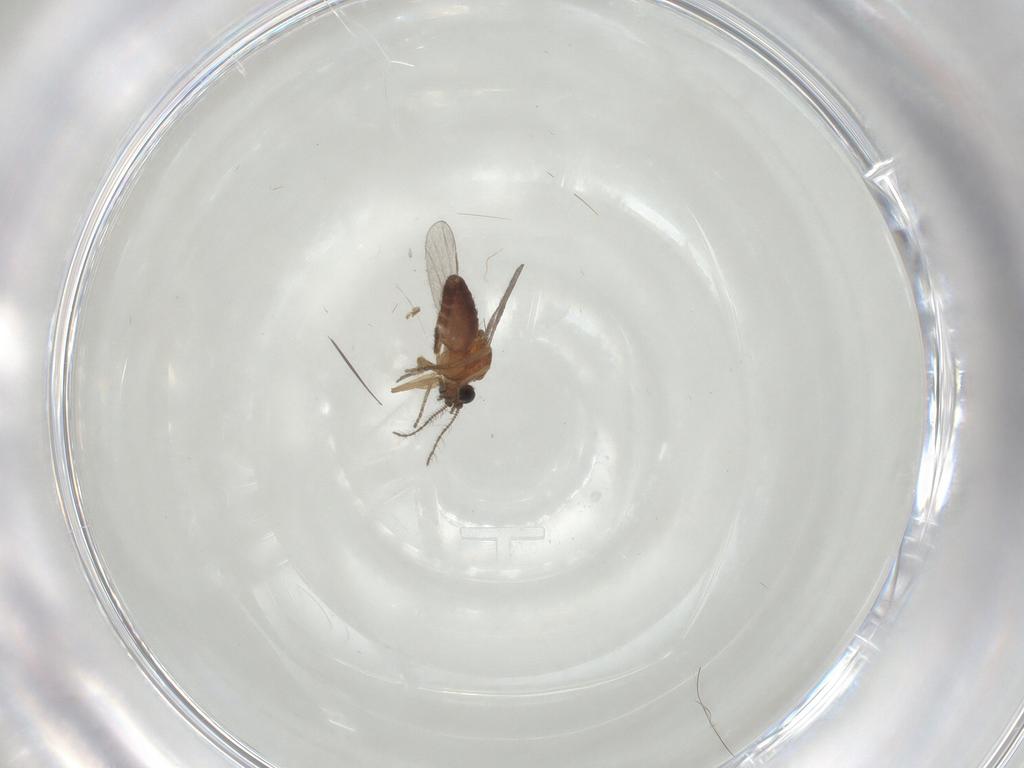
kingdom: Animalia
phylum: Arthropoda
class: Insecta
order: Diptera
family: Ceratopogonidae
